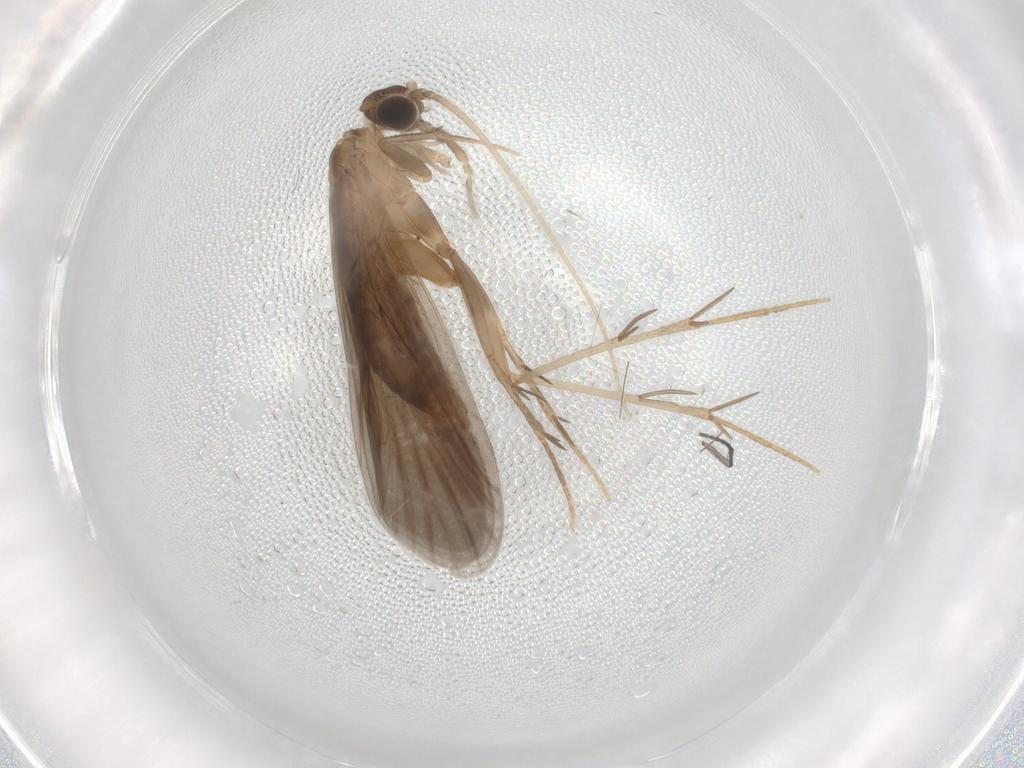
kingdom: Animalia
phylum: Arthropoda
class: Insecta
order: Trichoptera
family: Philopotamidae
